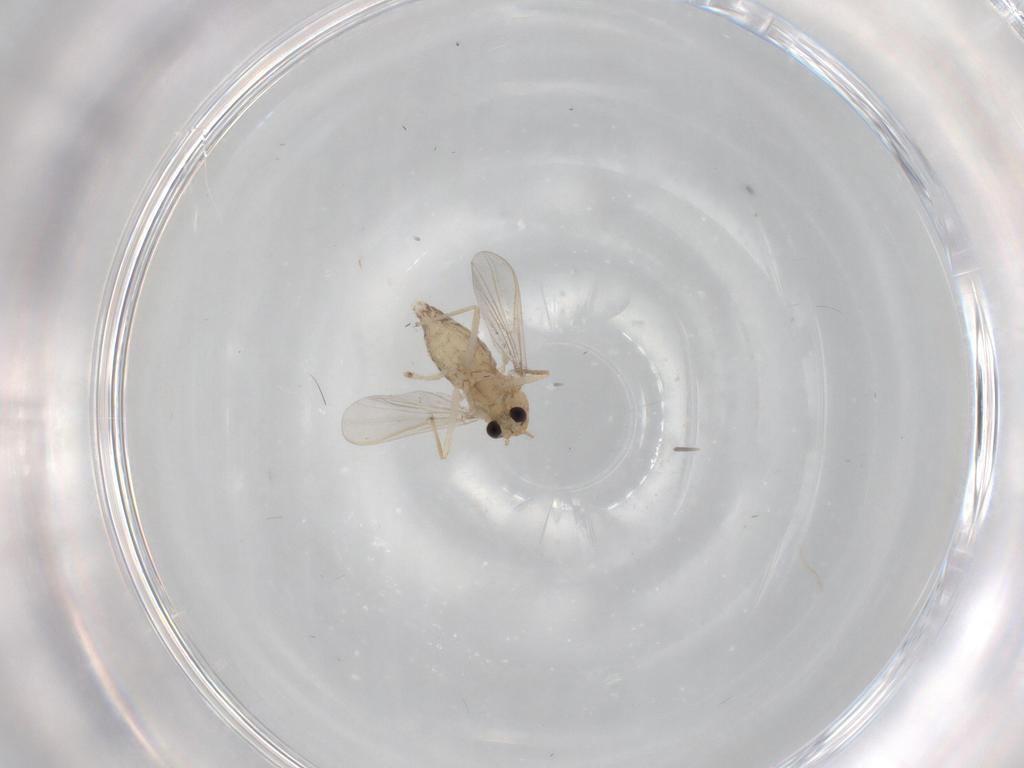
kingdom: Animalia
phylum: Arthropoda
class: Insecta
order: Diptera
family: Chironomidae
